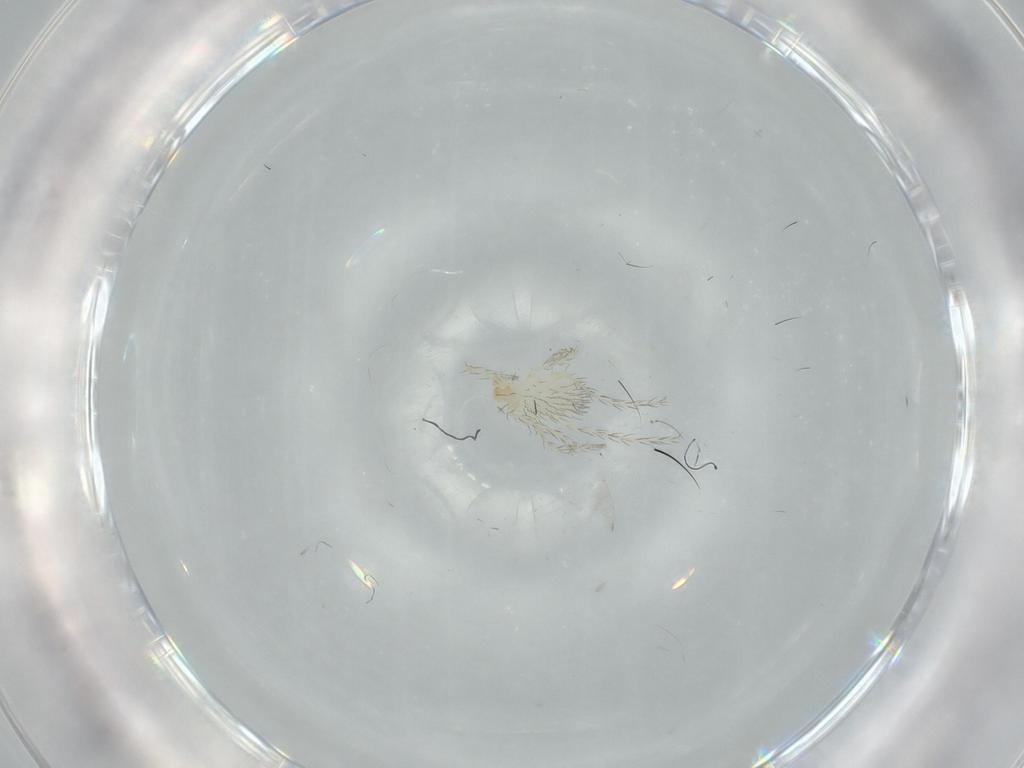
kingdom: Animalia
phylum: Arthropoda
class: Arachnida
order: Trombidiformes
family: Erythraeidae
